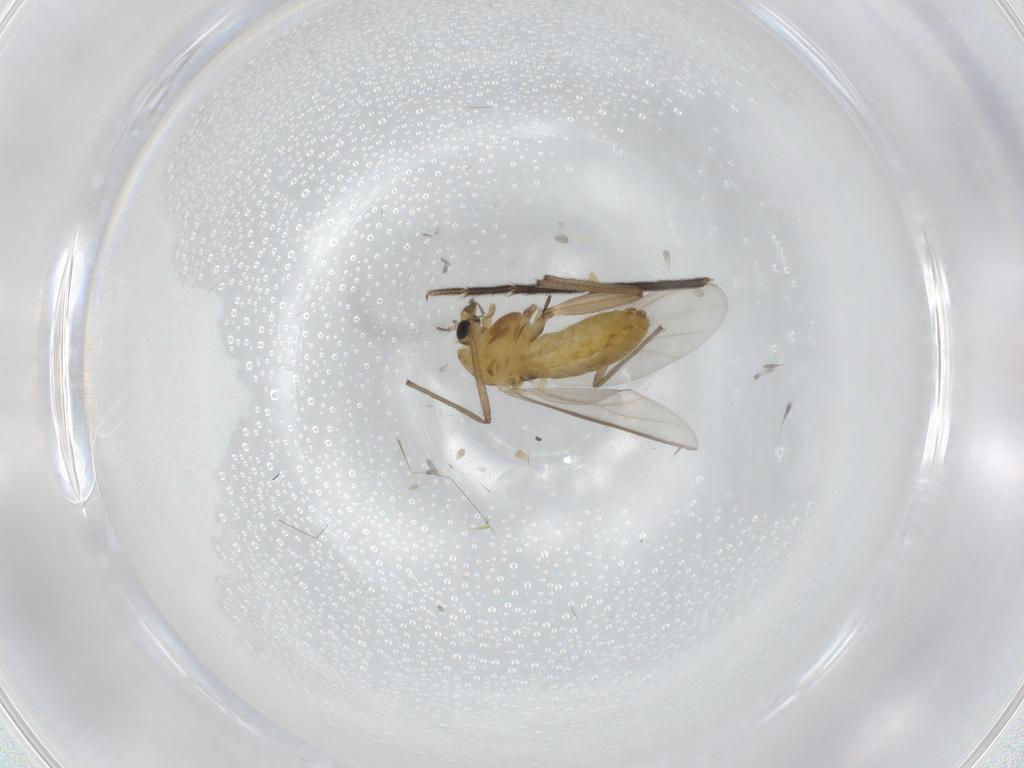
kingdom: Animalia
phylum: Arthropoda
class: Insecta
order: Diptera
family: Chironomidae
